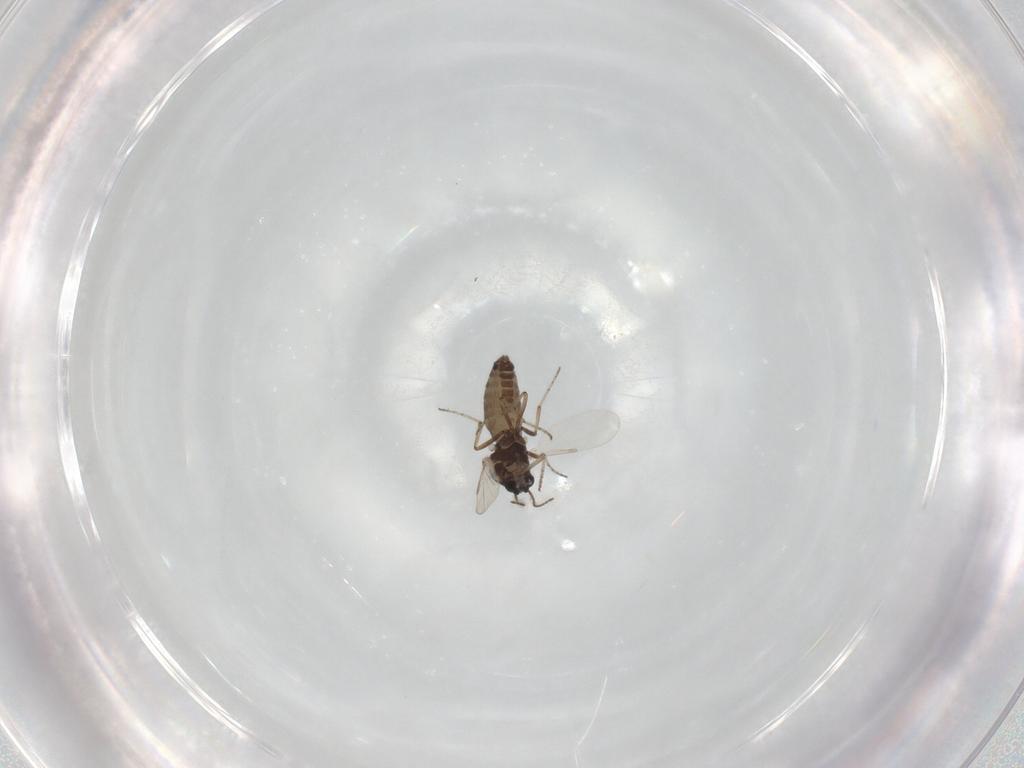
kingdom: Animalia
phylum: Arthropoda
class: Insecta
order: Diptera
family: Ceratopogonidae
